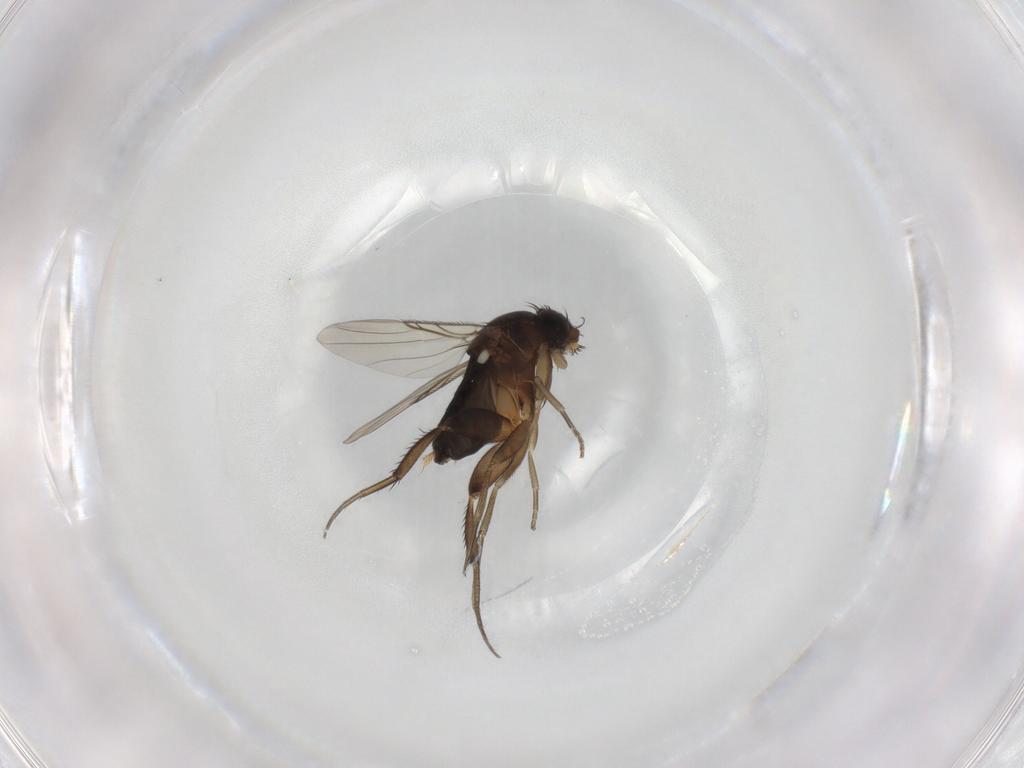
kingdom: Animalia
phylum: Arthropoda
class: Insecta
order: Diptera
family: Phoridae
